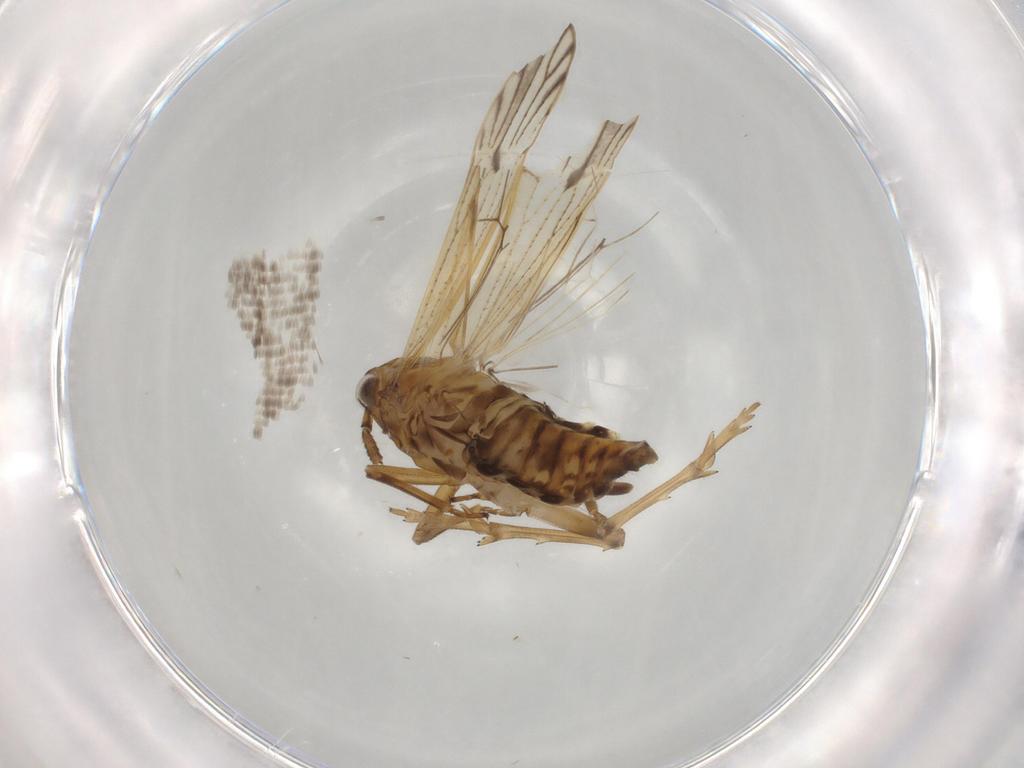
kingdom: Animalia
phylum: Arthropoda
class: Insecta
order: Hemiptera
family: Delphacidae
